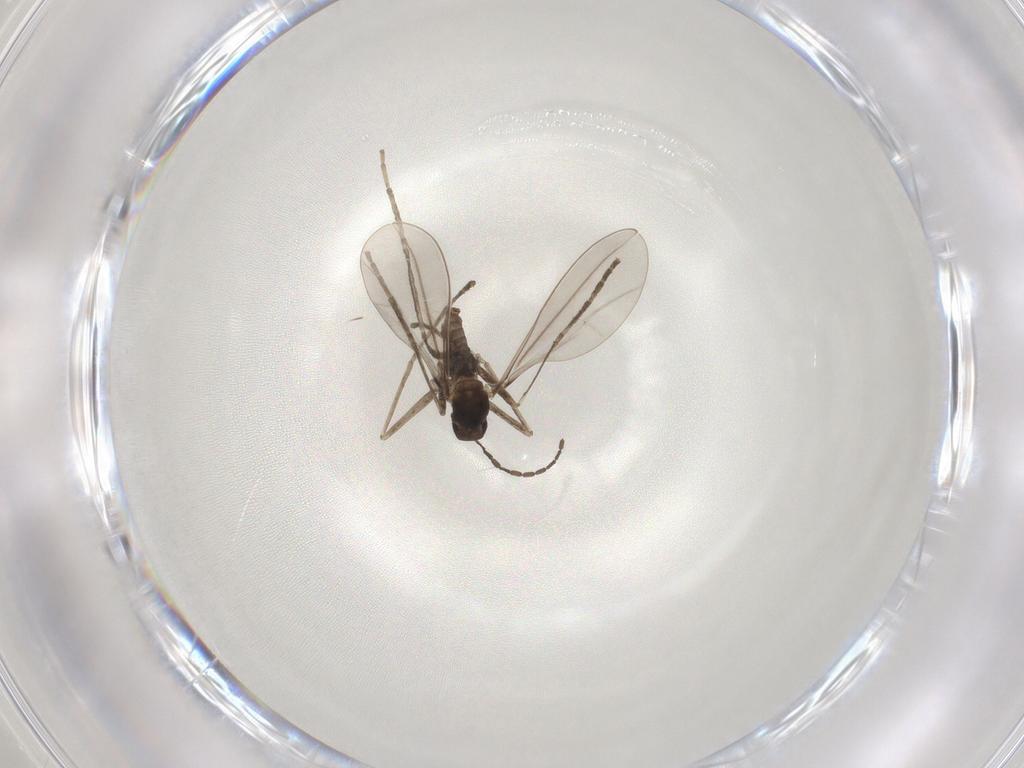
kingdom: Animalia
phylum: Arthropoda
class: Insecta
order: Diptera
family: Cecidomyiidae
